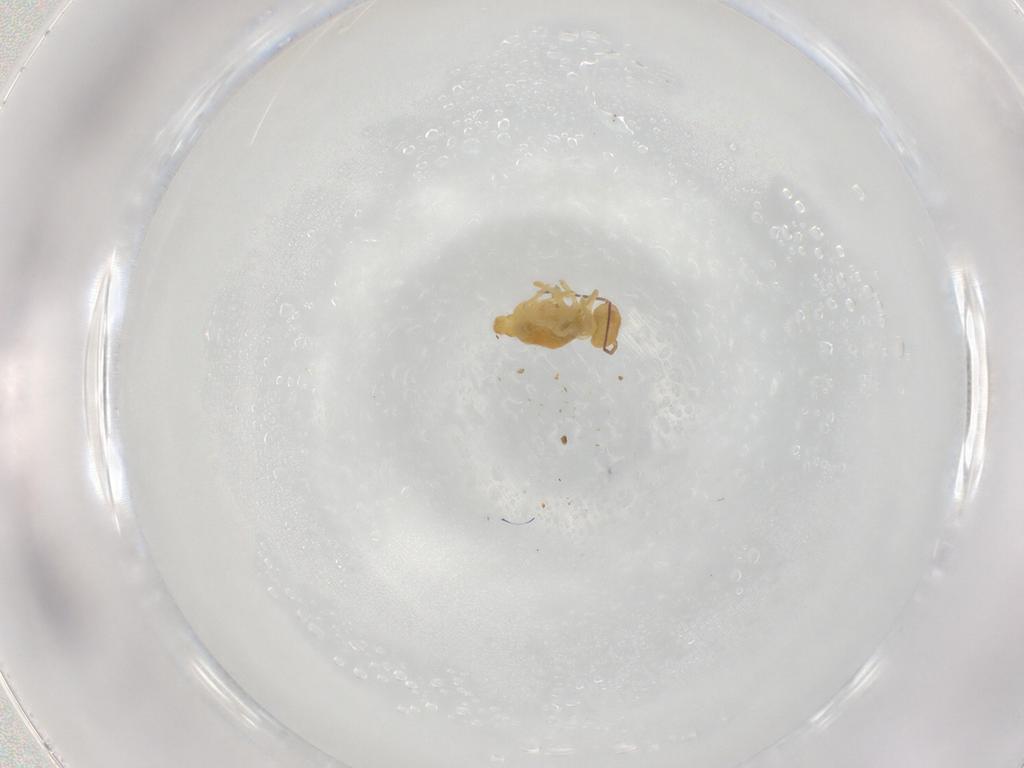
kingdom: Animalia
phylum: Arthropoda
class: Collembola
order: Symphypleona
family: Bourletiellidae
